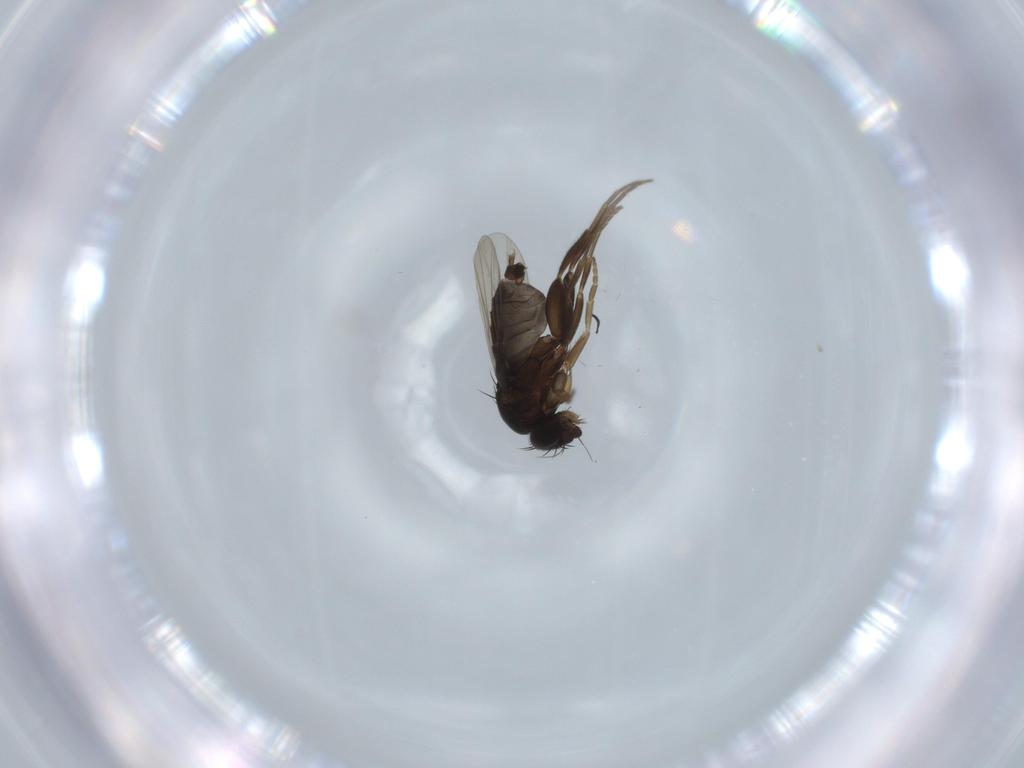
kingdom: Animalia
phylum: Arthropoda
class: Insecta
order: Diptera
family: Phoridae
